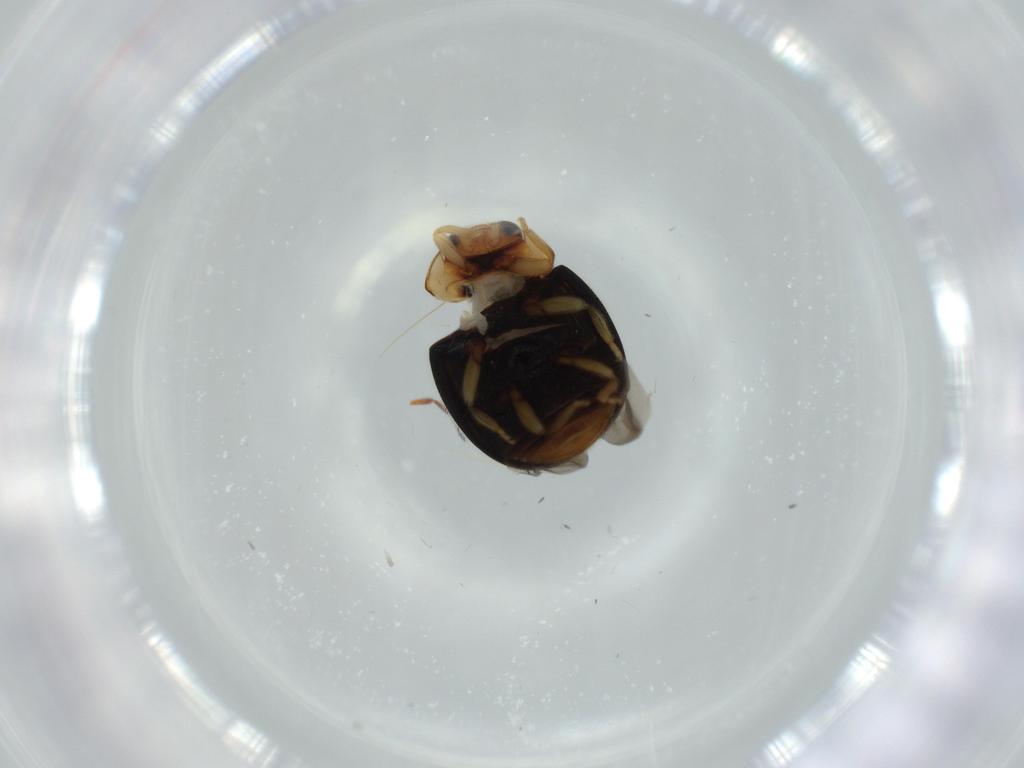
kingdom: Animalia
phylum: Arthropoda
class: Insecta
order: Coleoptera
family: Coccinellidae
